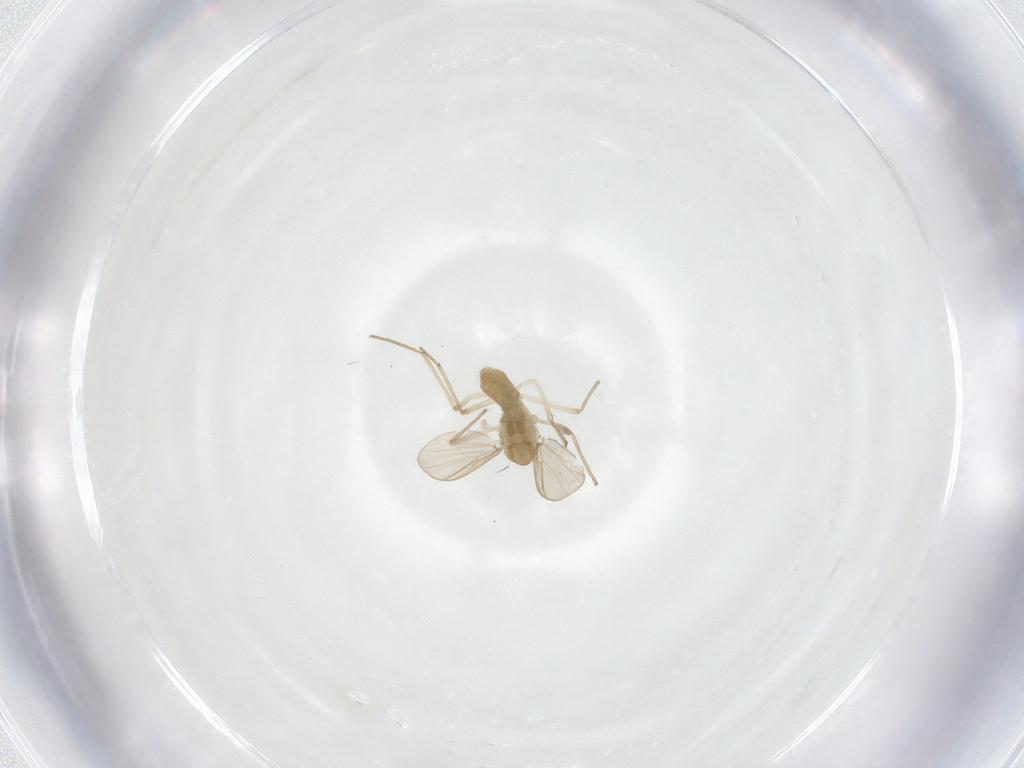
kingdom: Animalia
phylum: Arthropoda
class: Insecta
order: Diptera
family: Chironomidae
